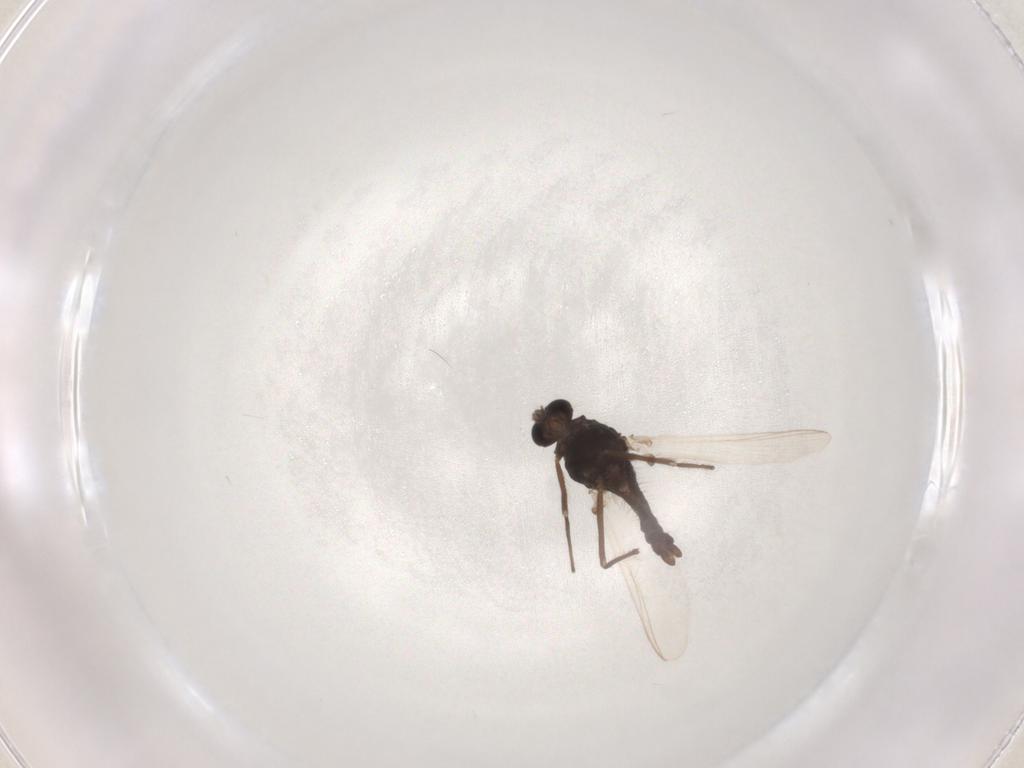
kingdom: Animalia
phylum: Arthropoda
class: Insecta
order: Diptera
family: Chironomidae
